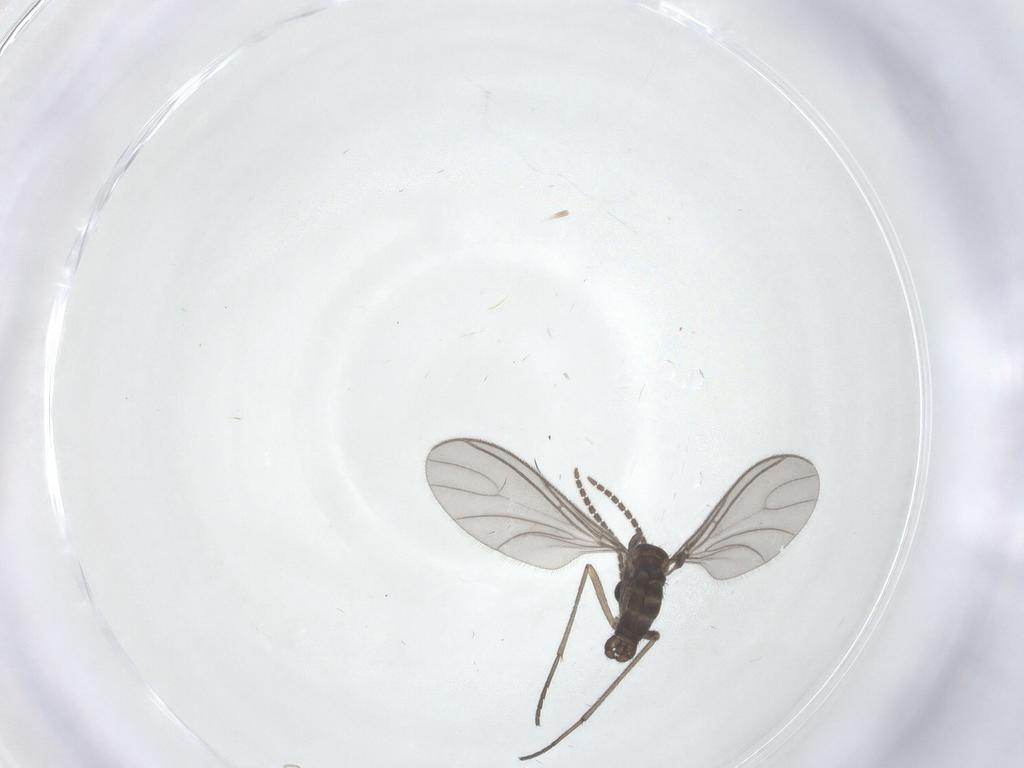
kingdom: Animalia
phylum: Arthropoda
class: Insecta
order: Diptera
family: Sciaridae
